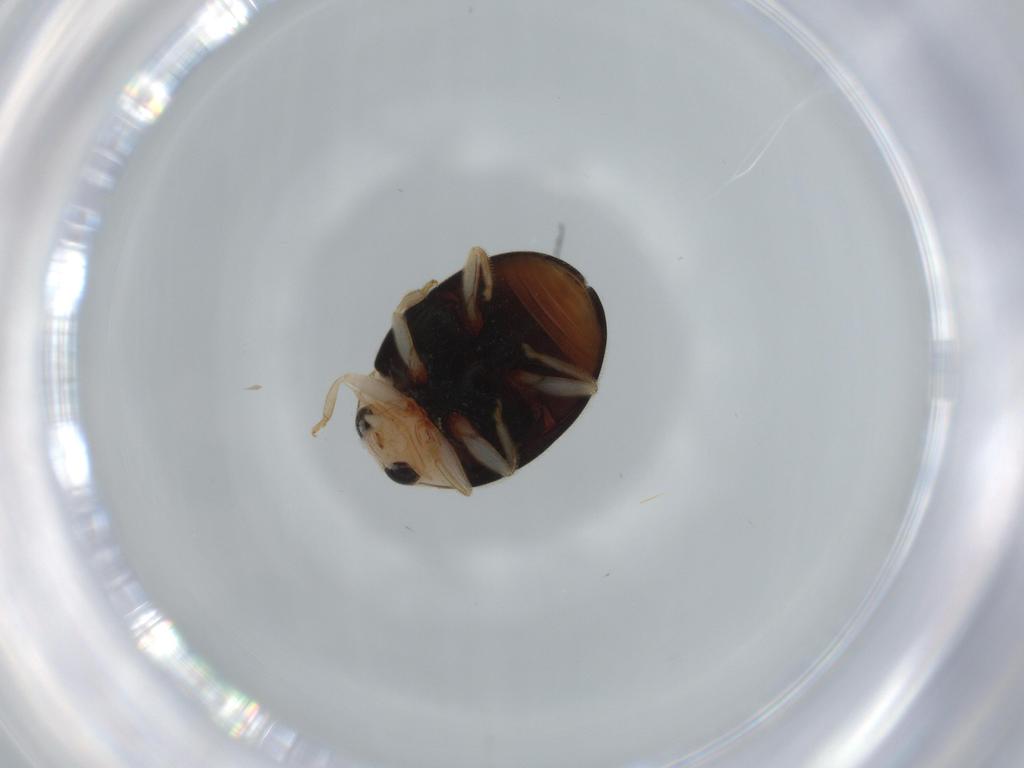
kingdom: Animalia
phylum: Arthropoda
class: Insecta
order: Coleoptera
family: Coccinellidae
